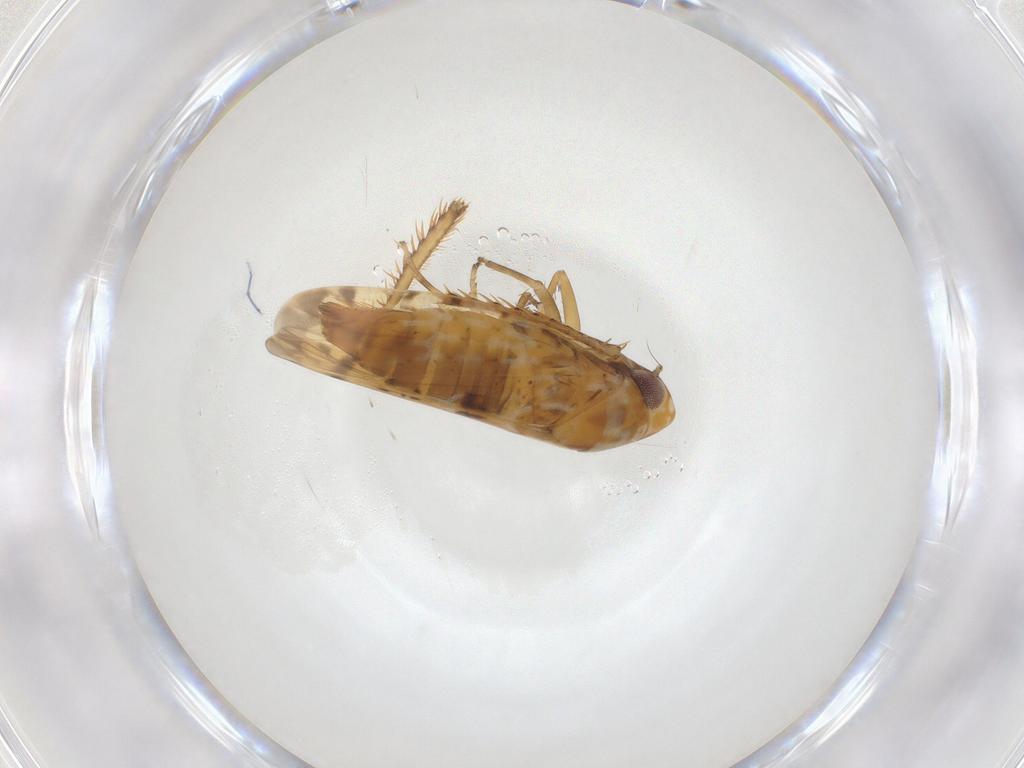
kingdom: Animalia
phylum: Arthropoda
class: Insecta
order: Hemiptera
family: Cicadellidae
